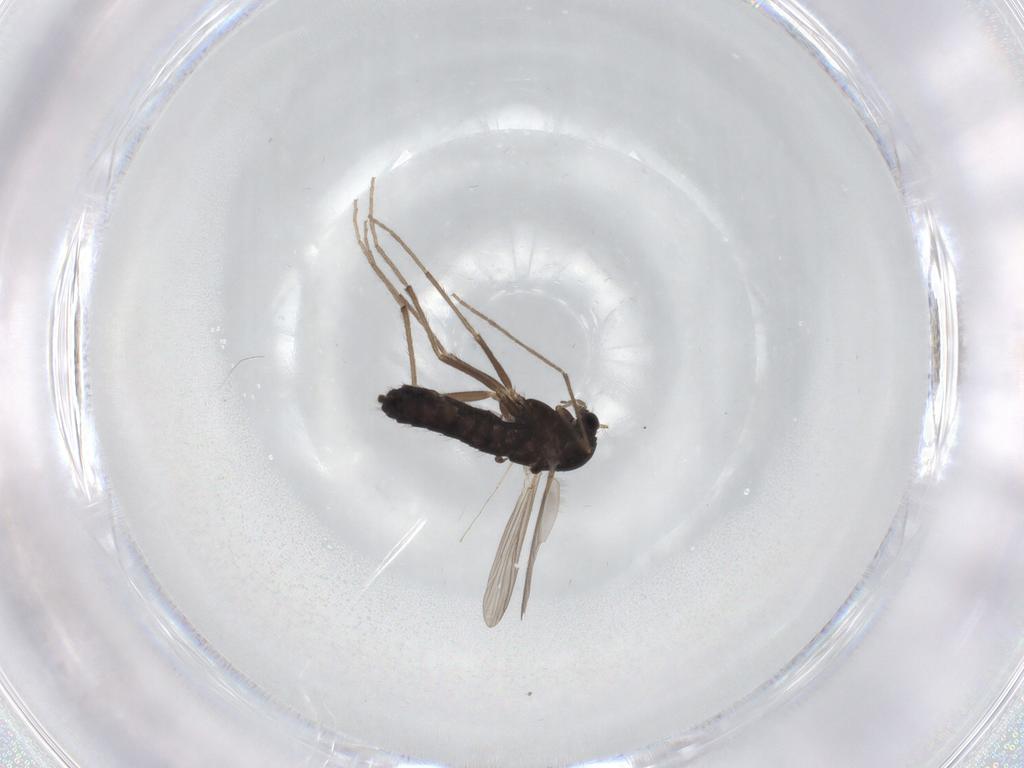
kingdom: Animalia
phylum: Arthropoda
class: Insecta
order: Diptera
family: Chironomidae
